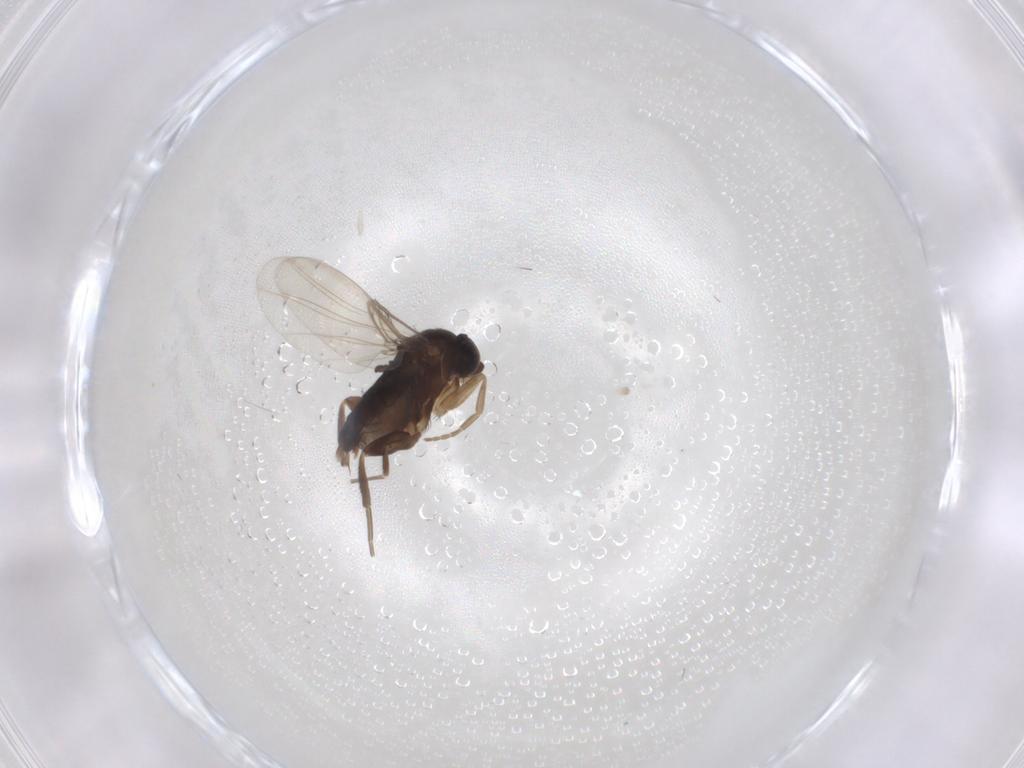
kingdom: Animalia
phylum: Arthropoda
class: Insecta
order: Diptera
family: Phoridae
